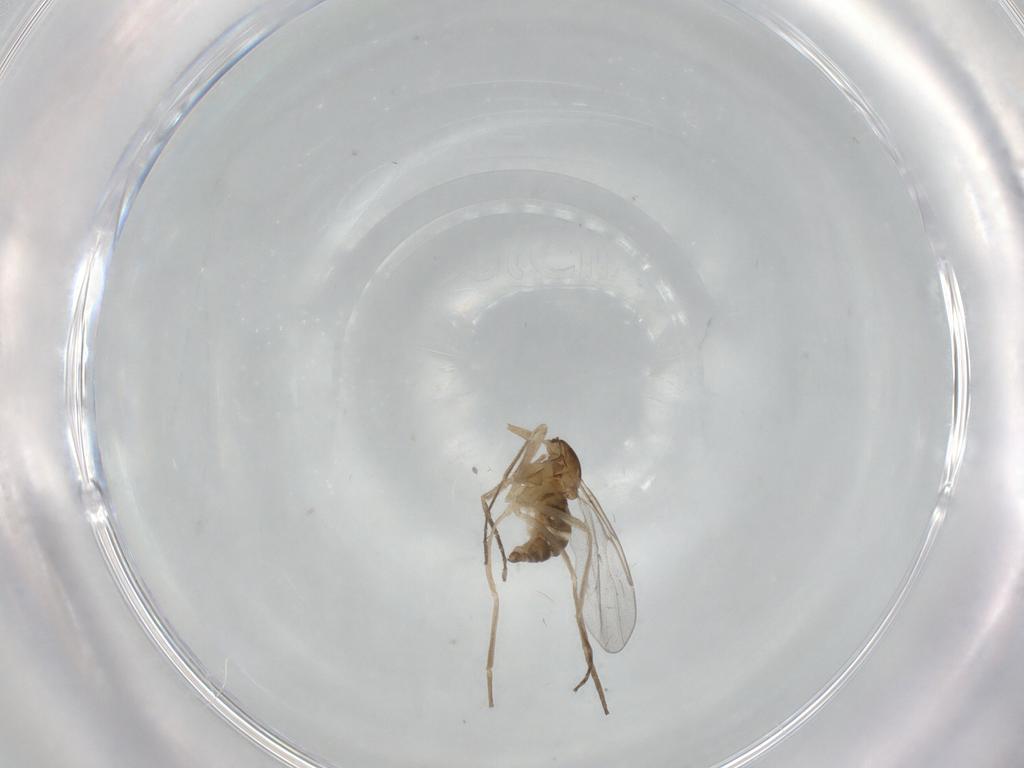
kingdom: Animalia
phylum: Arthropoda
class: Insecta
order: Diptera
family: Cecidomyiidae
